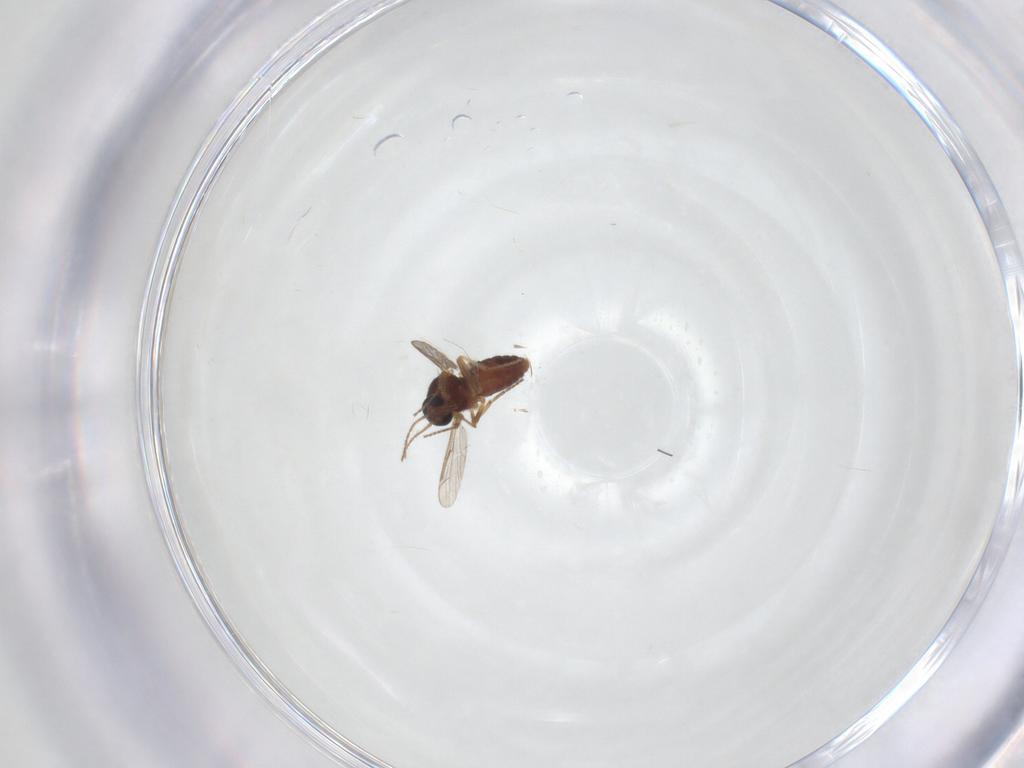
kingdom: Animalia
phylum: Arthropoda
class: Insecta
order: Diptera
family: Ceratopogonidae
